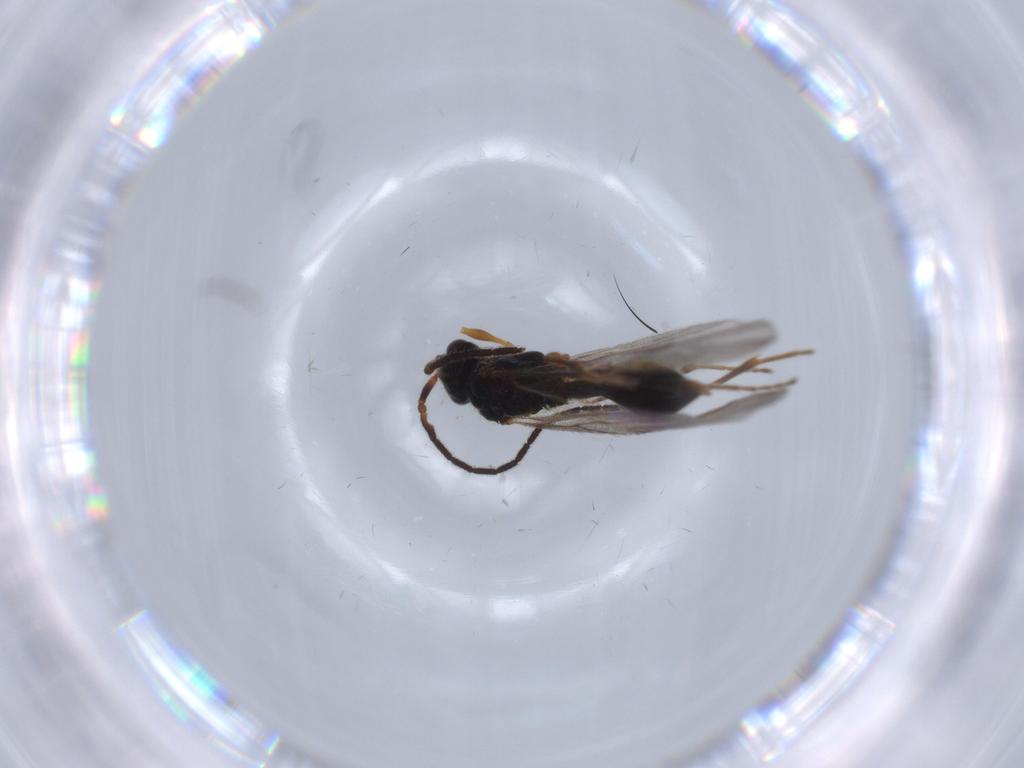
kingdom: Animalia
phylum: Arthropoda
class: Insecta
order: Hymenoptera
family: Diapriidae
